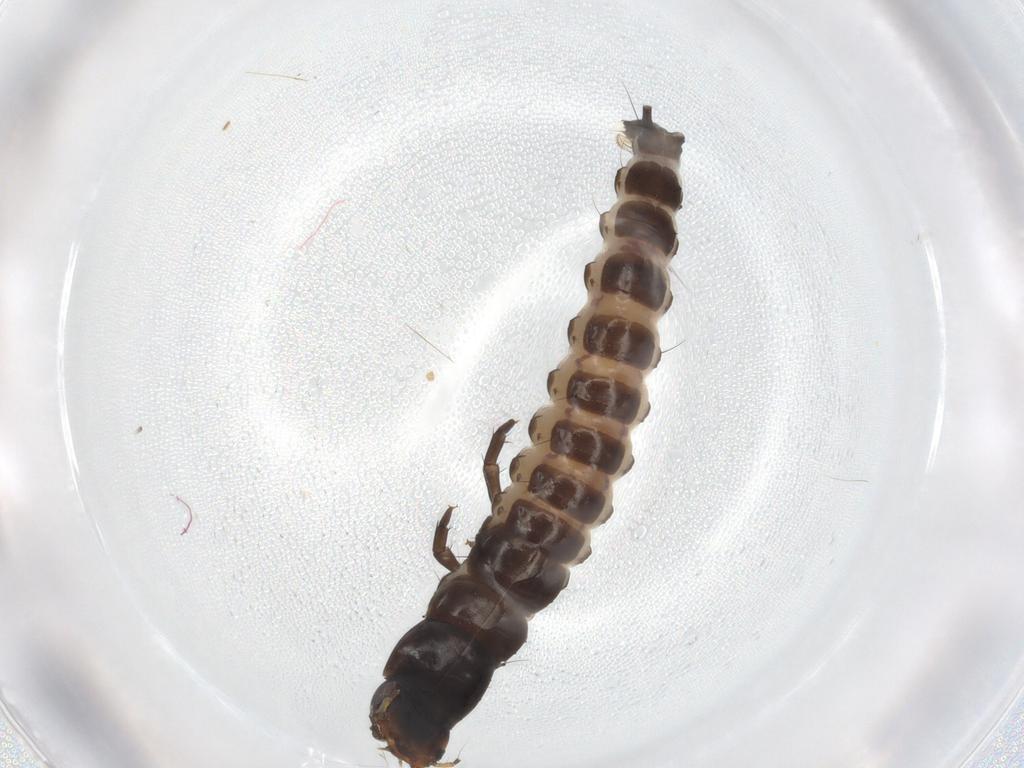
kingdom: Animalia
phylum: Arthropoda
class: Insecta
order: Coleoptera
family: Carabidae
